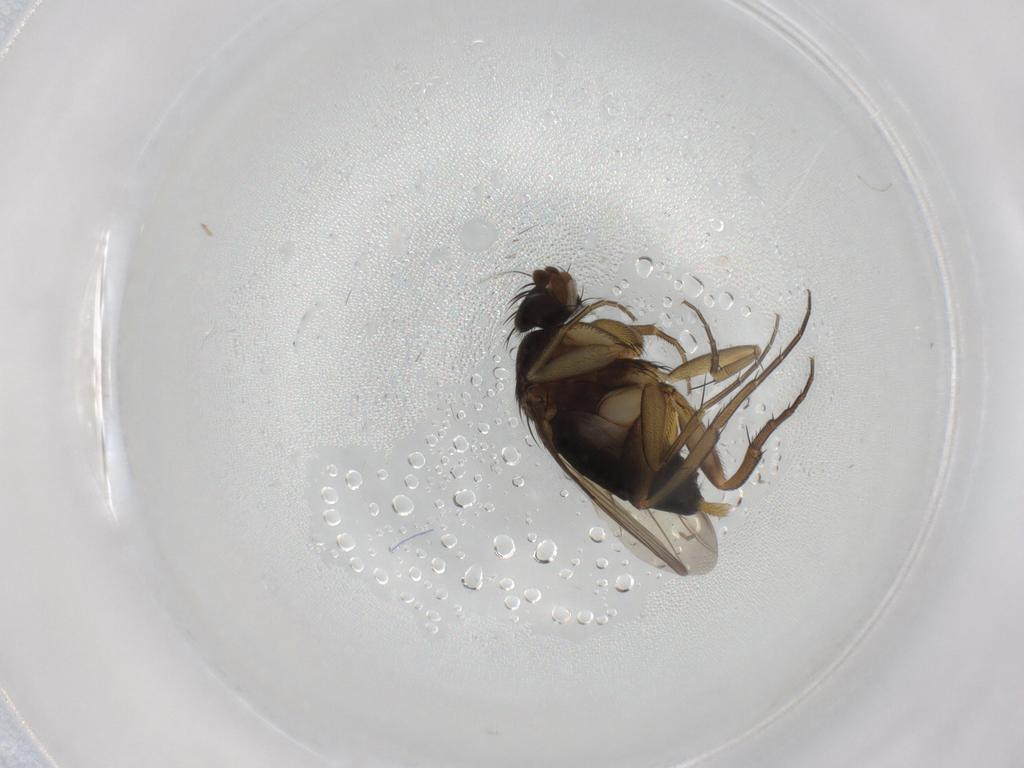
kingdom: Animalia
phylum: Arthropoda
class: Insecta
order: Diptera
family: Phoridae
